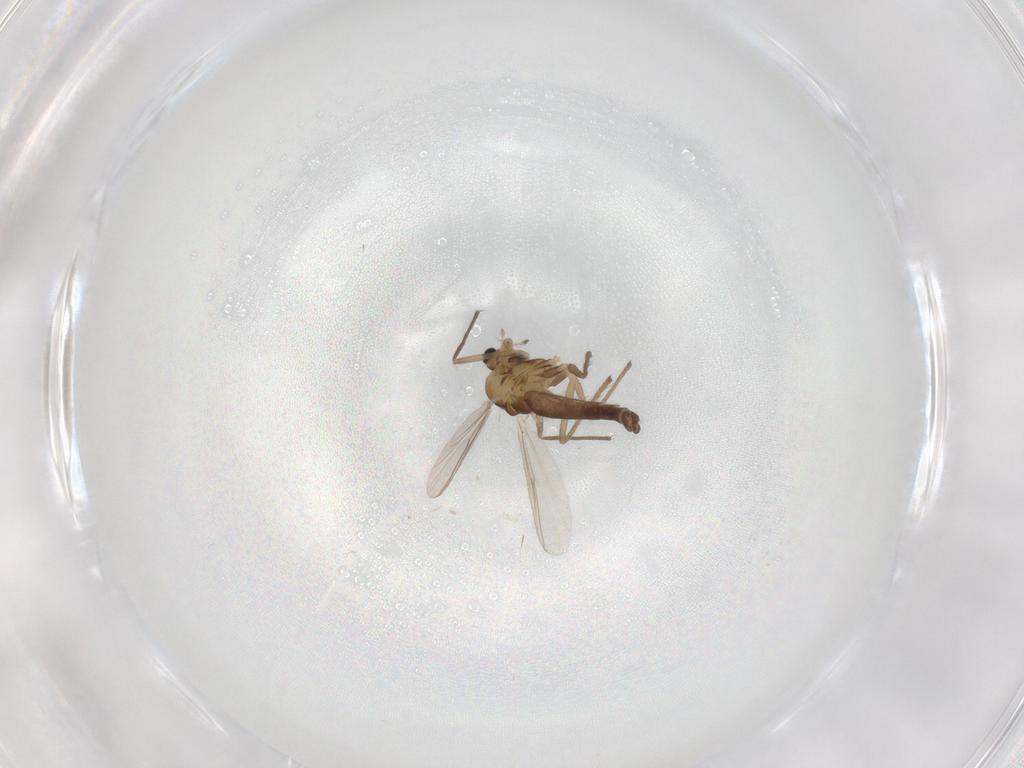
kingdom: Animalia
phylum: Arthropoda
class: Insecta
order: Diptera
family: Chironomidae
